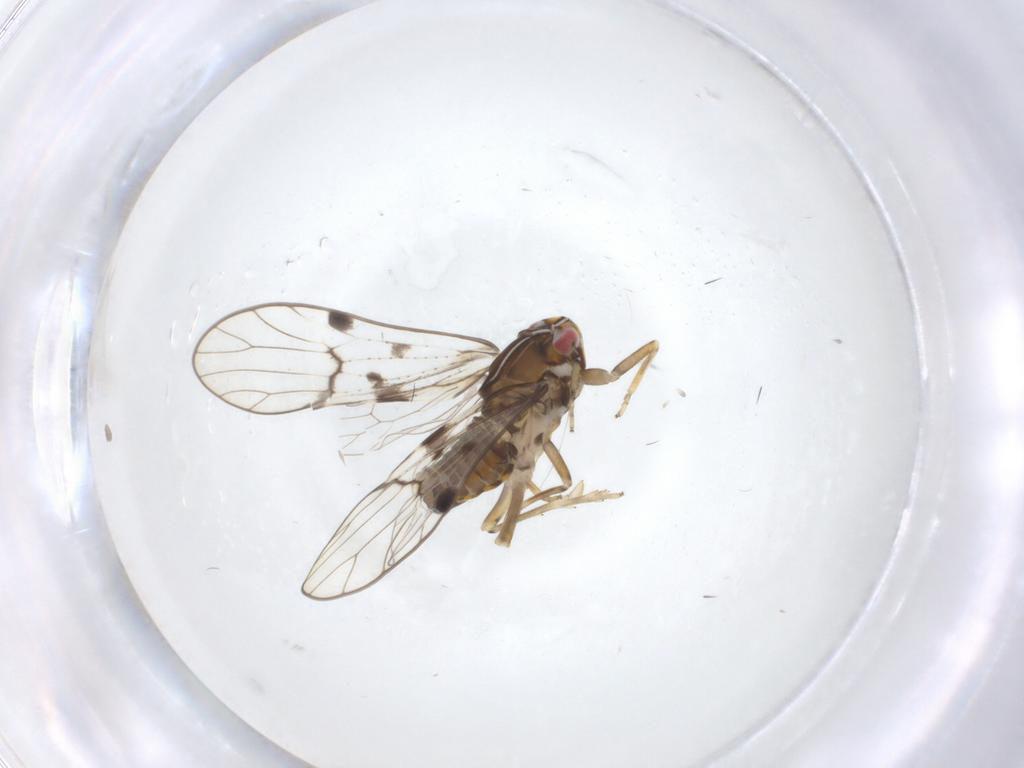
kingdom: Animalia
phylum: Arthropoda
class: Insecta
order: Hemiptera
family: Delphacidae
